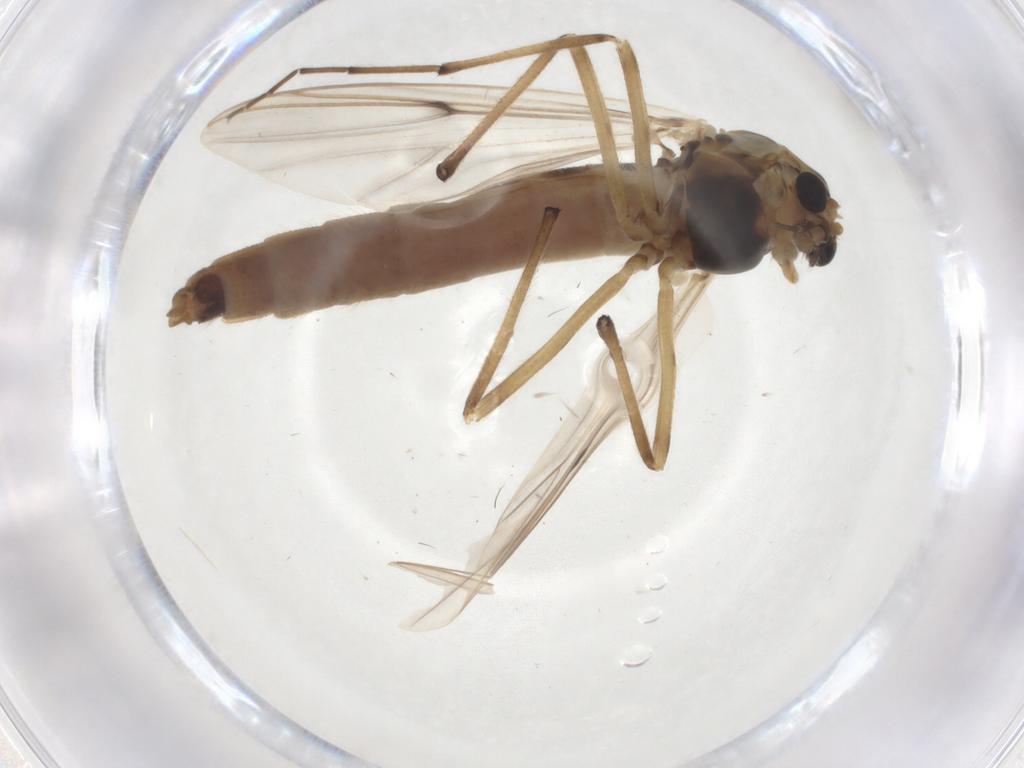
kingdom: Animalia
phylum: Arthropoda
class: Insecta
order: Diptera
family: Chironomidae
